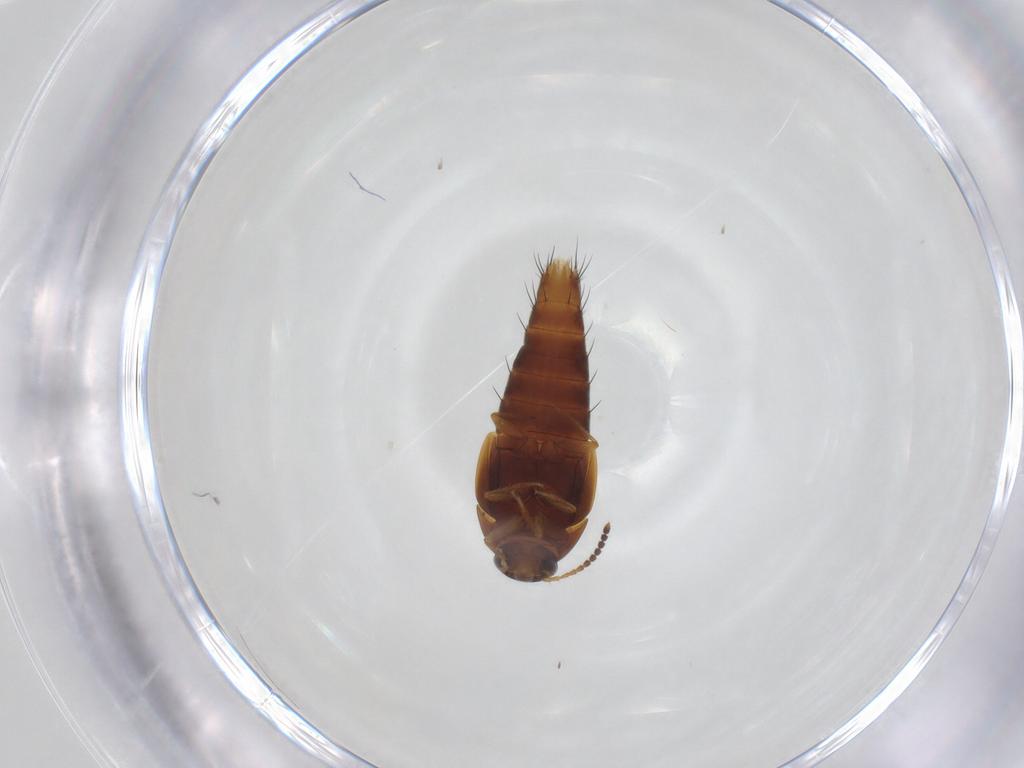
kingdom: Animalia
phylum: Arthropoda
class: Insecta
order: Coleoptera
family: Staphylinidae
